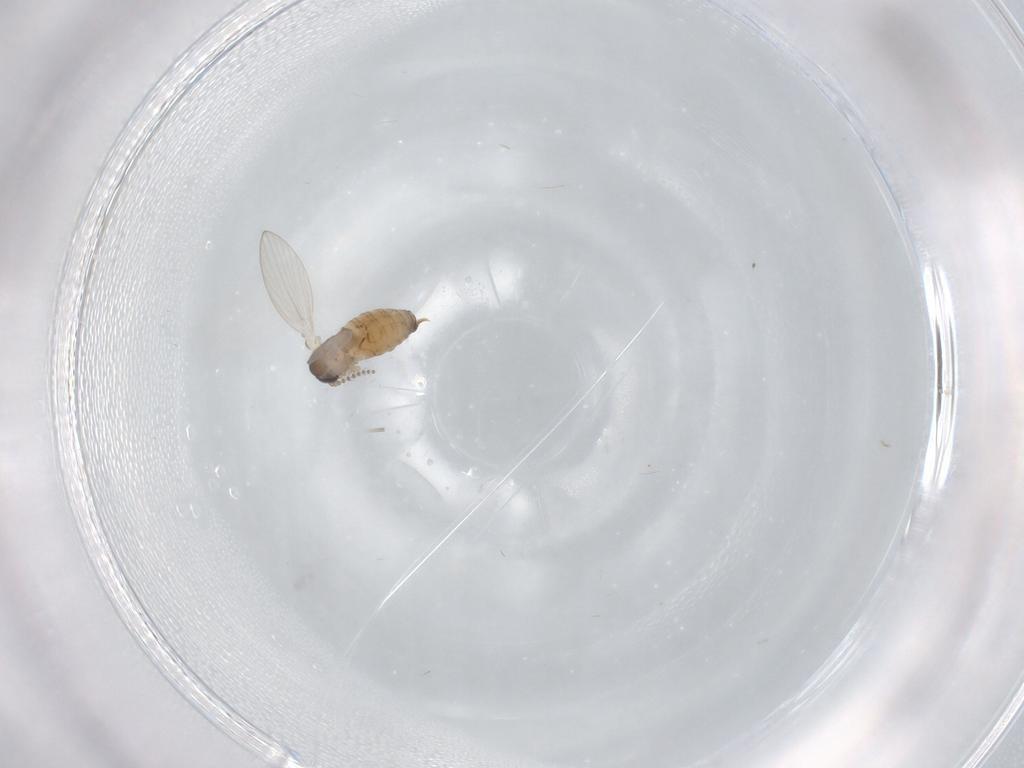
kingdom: Animalia
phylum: Arthropoda
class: Insecta
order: Diptera
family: Psychodidae
